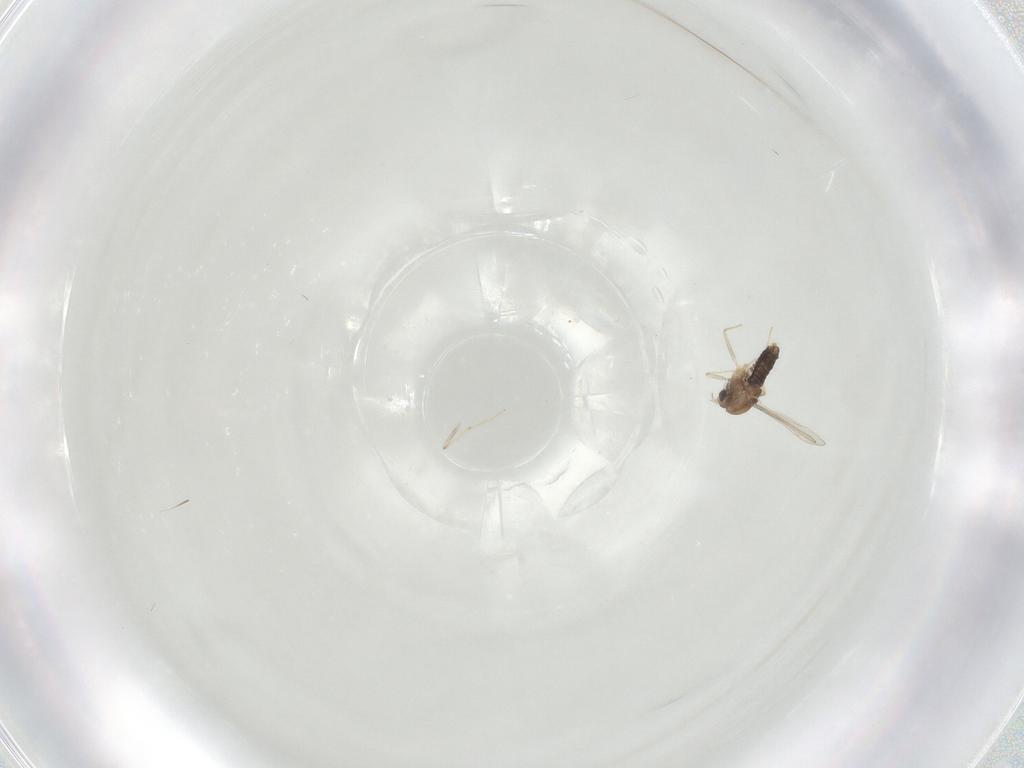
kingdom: Animalia
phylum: Arthropoda
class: Insecta
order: Diptera
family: Chironomidae
